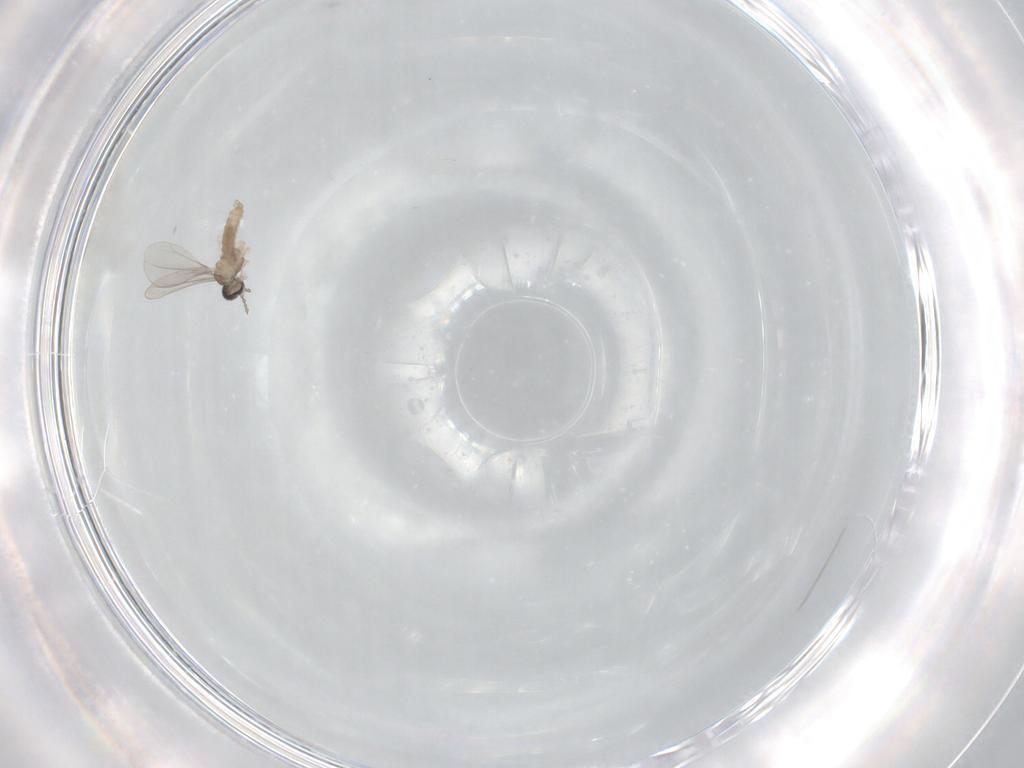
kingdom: Animalia
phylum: Arthropoda
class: Insecta
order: Diptera
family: Cecidomyiidae
